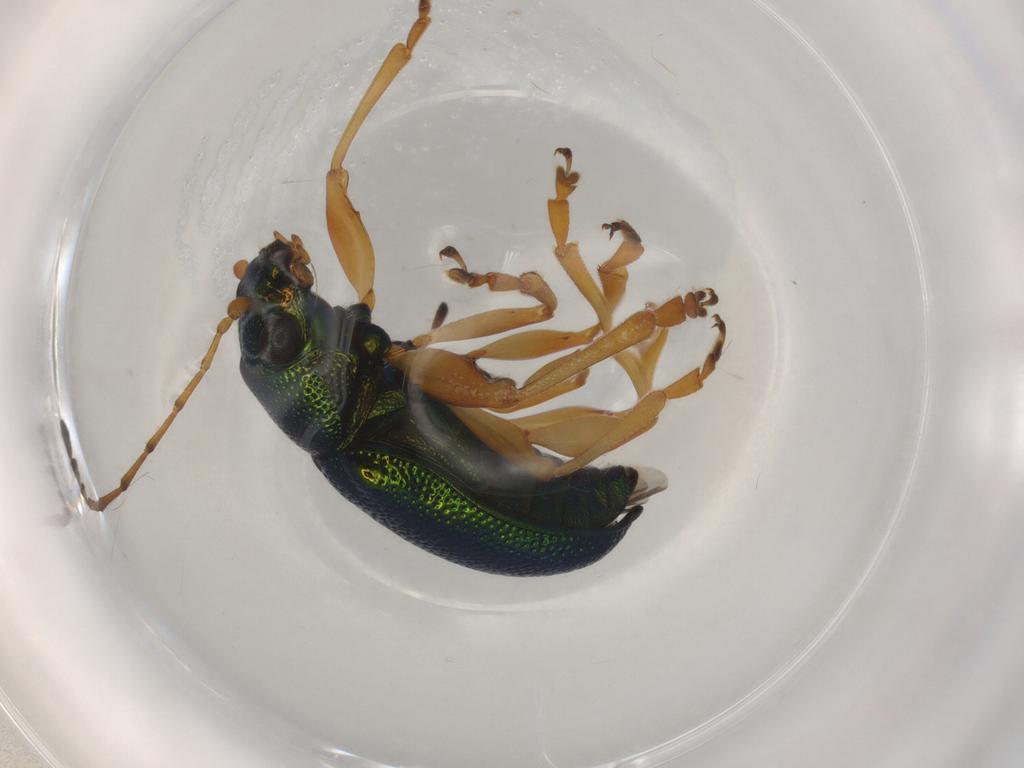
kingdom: Animalia
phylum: Arthropoda
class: Insecta
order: Coleoptera
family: Chrysomelidae
